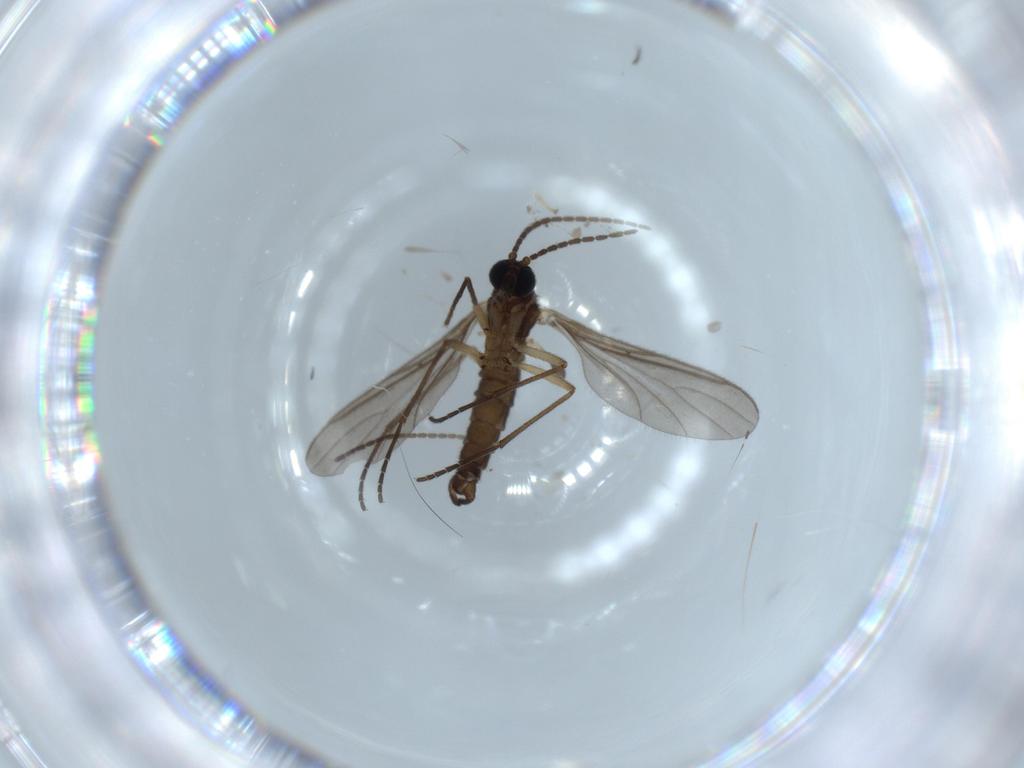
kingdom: Animalia
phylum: Arthropoda
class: Insecta
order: Diptera
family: Sciaridae
